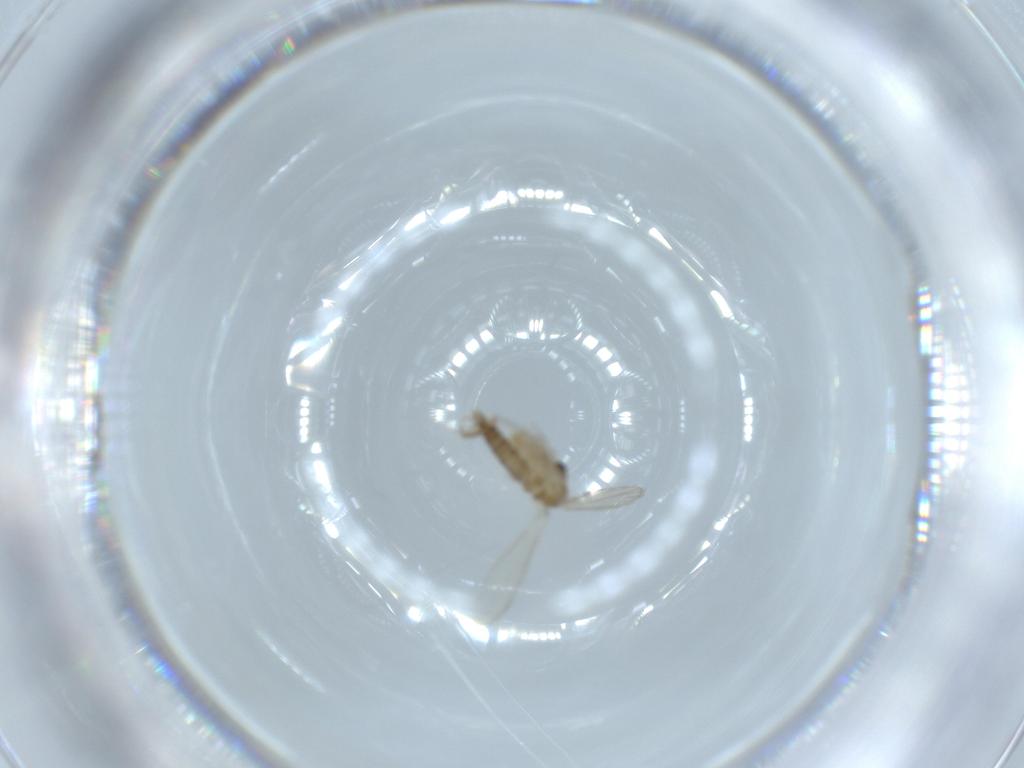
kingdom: Animalia
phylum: Arthropoda
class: Insecta
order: Diptera
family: Psychodidae
